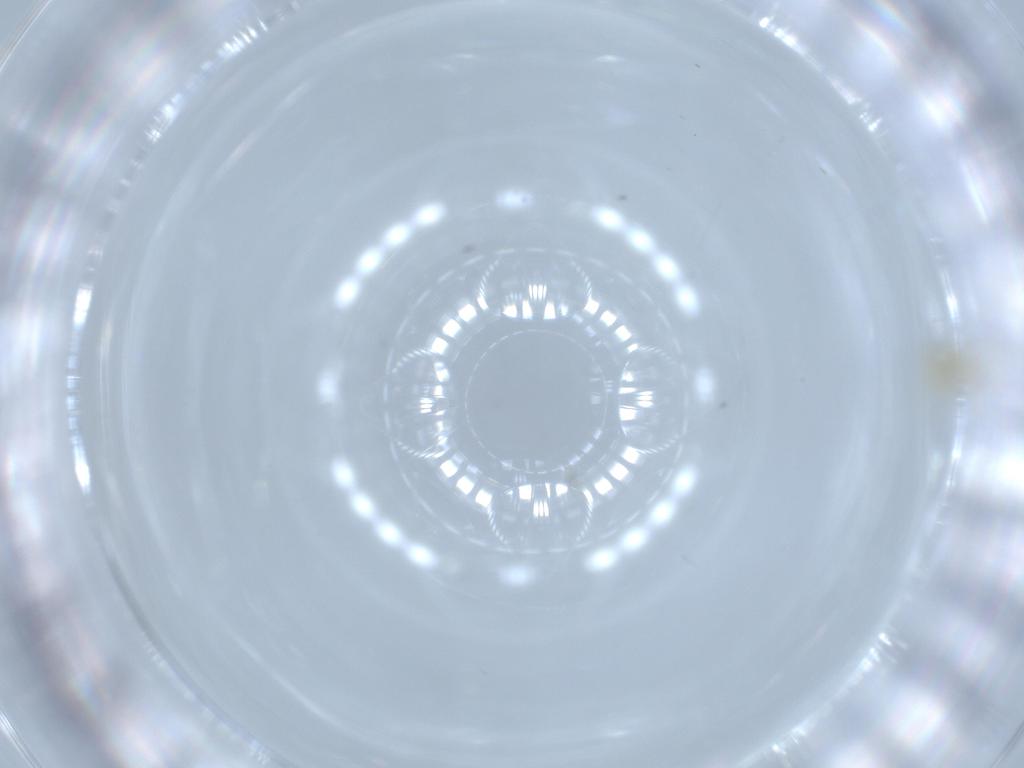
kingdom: Animalia
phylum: Arthropoda
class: Insecta
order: Hemiptera
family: Aleyrodidae
